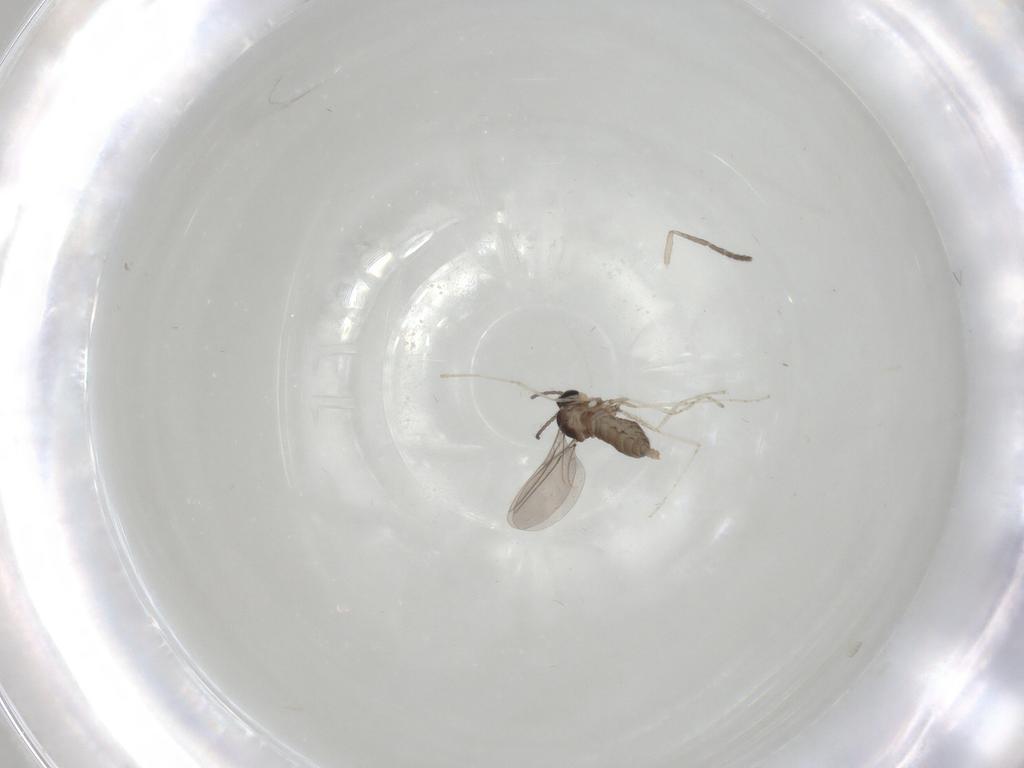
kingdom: Animalia
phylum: Arthropoda
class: Insecta
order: Diptera
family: Cecidomyiidae
